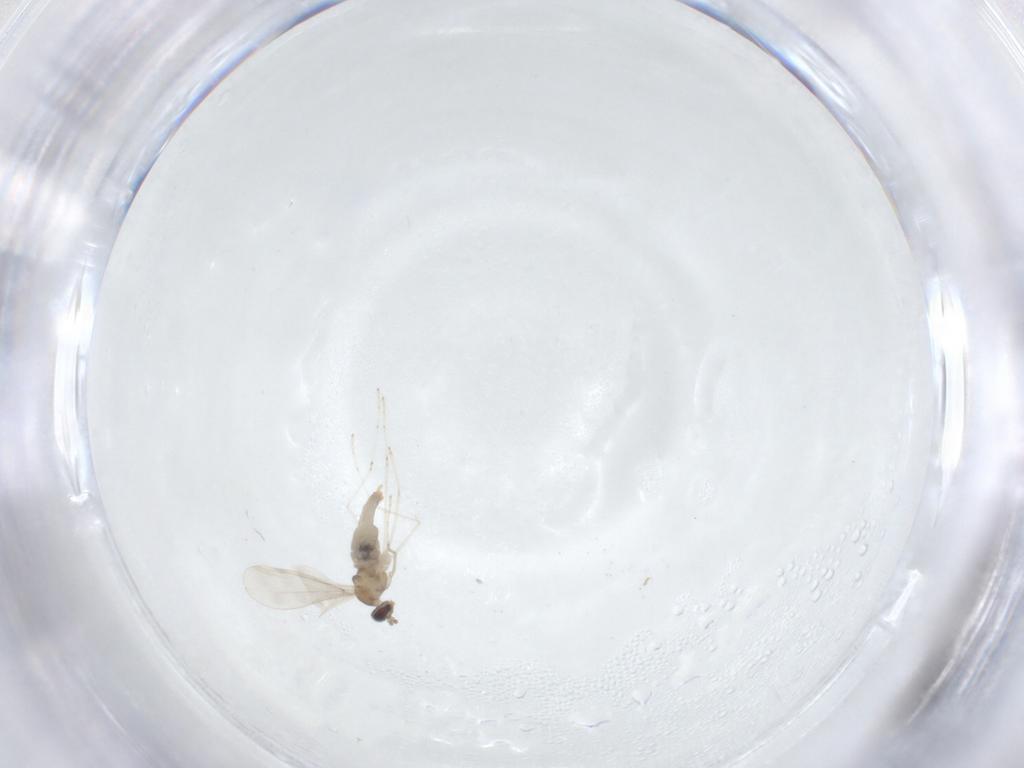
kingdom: Animalia
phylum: Arthropoda
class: Insecta
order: Diptera
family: Cecidomyiidae
